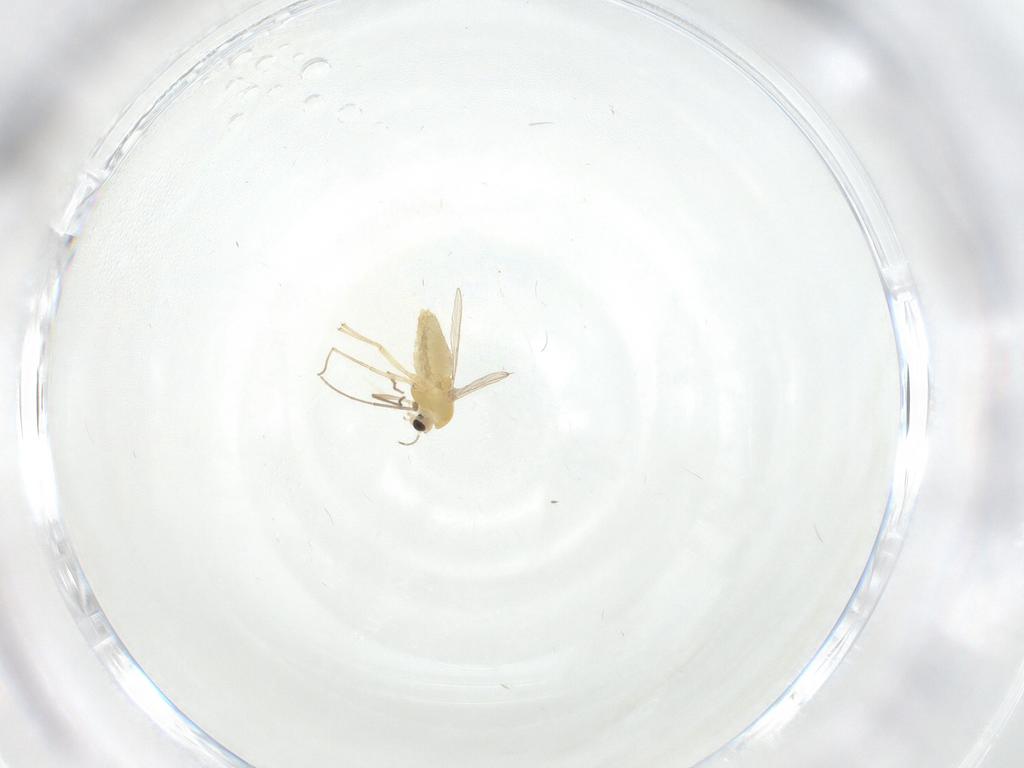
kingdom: Animalia
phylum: Arthropoda
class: Insecta
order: Diptera
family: Chironomidae
